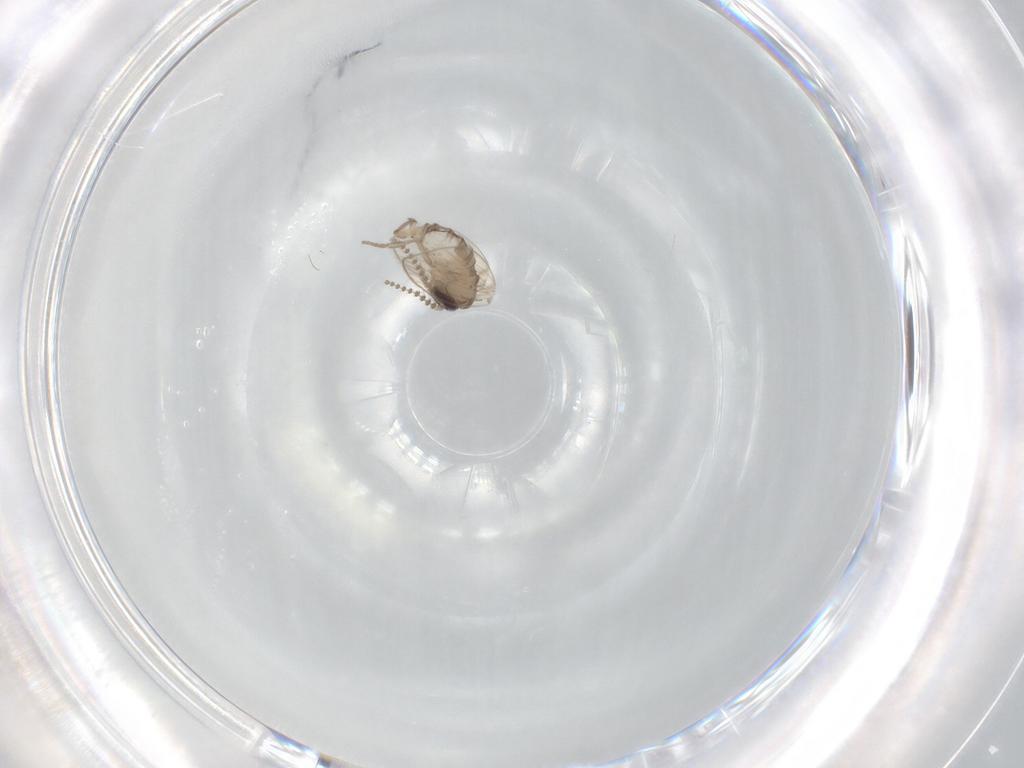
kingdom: Animalia
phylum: Arthropoda
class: Insecta
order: Diptera
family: Psychodidae
